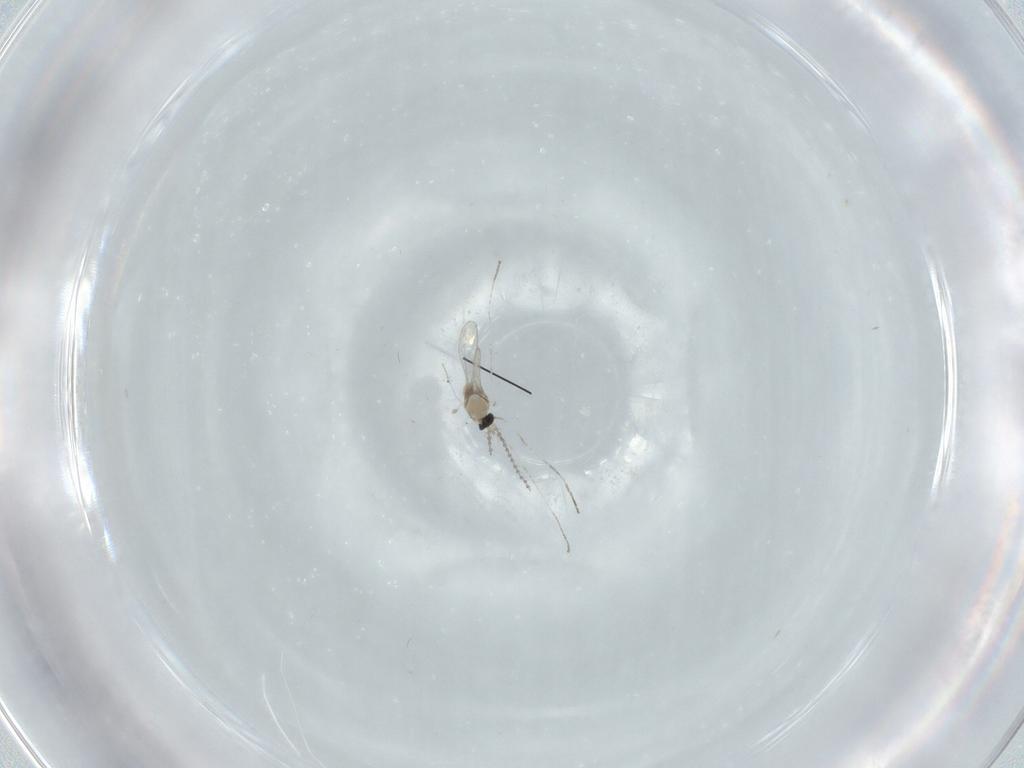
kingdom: Animalia
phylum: Arthropoda
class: Insecta
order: Diptera
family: Cecidomyiidae
